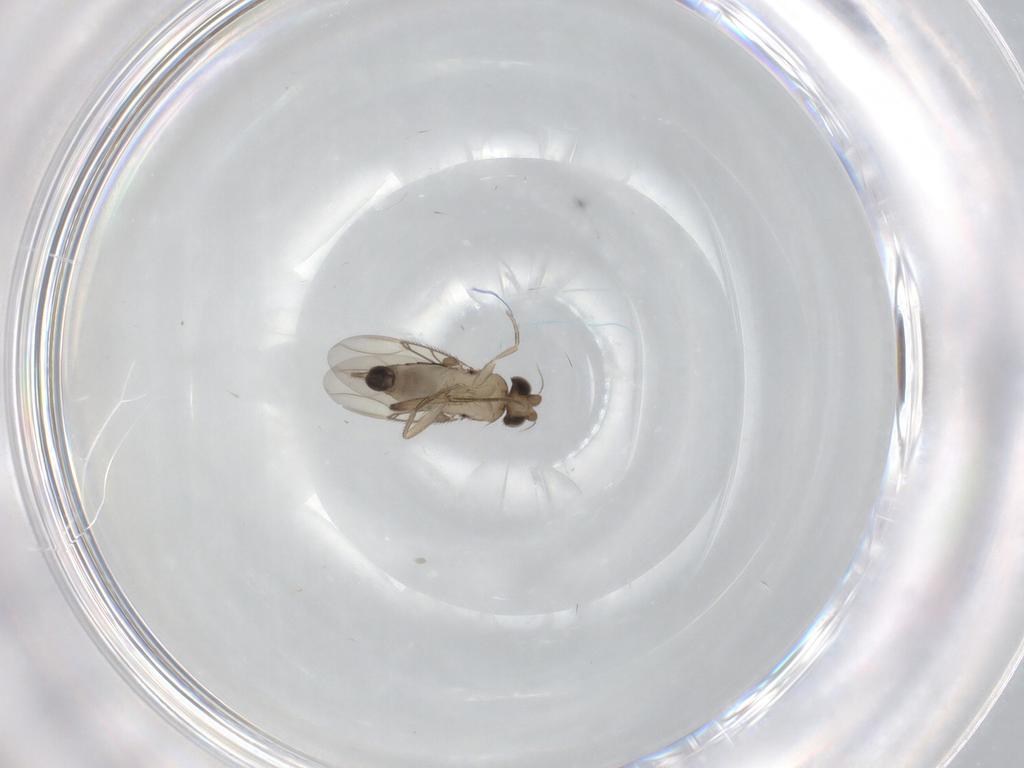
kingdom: Animalia
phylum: Arthropoda
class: Insecta
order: Diptera
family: Phoridae
